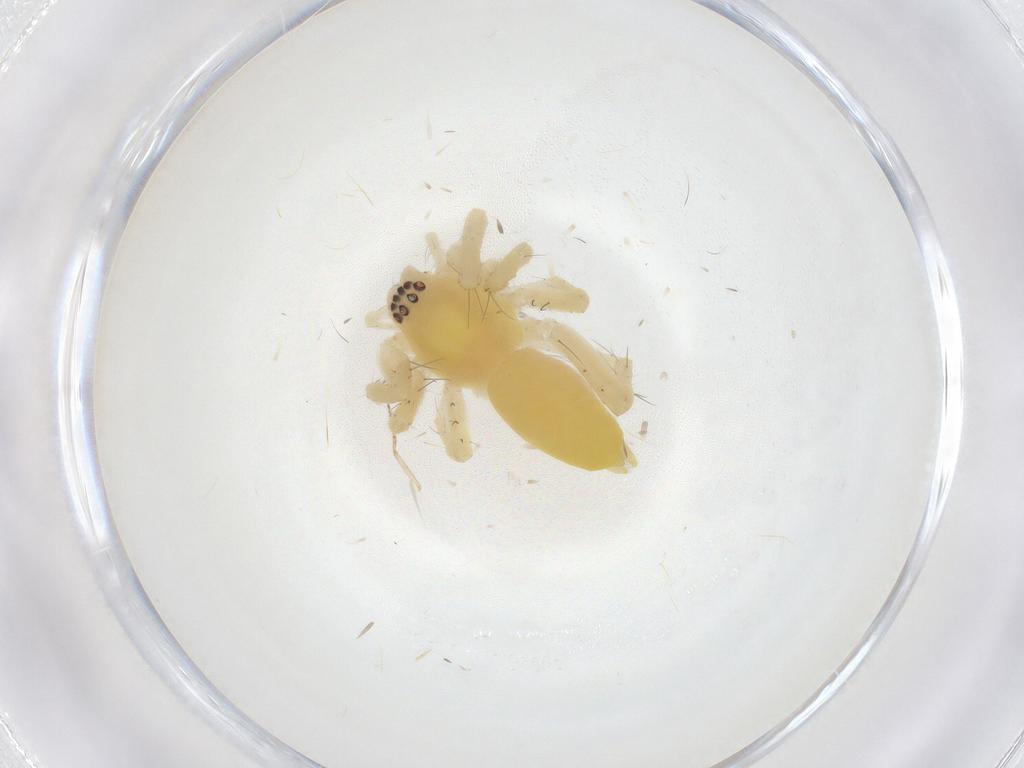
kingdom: Animalia
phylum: Arthropoda
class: Arachnida
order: Araneae
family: Anyphaenidae
